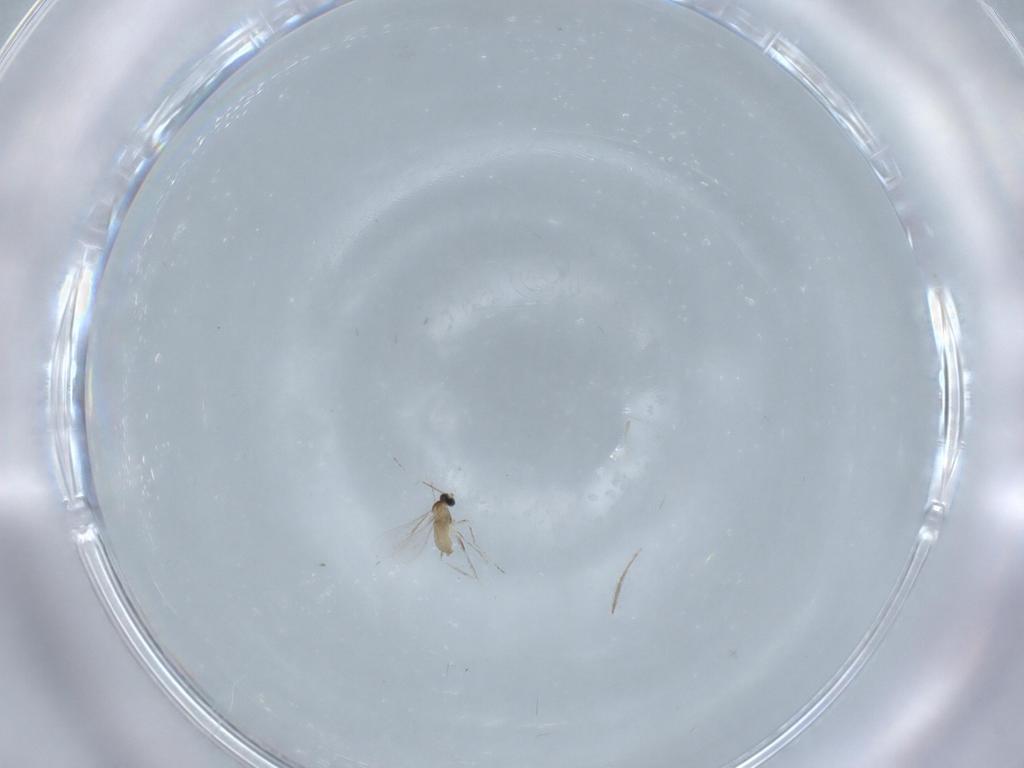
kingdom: Animalia
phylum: Arthropoda
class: Insecta
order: Diptera
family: Chironomidae
